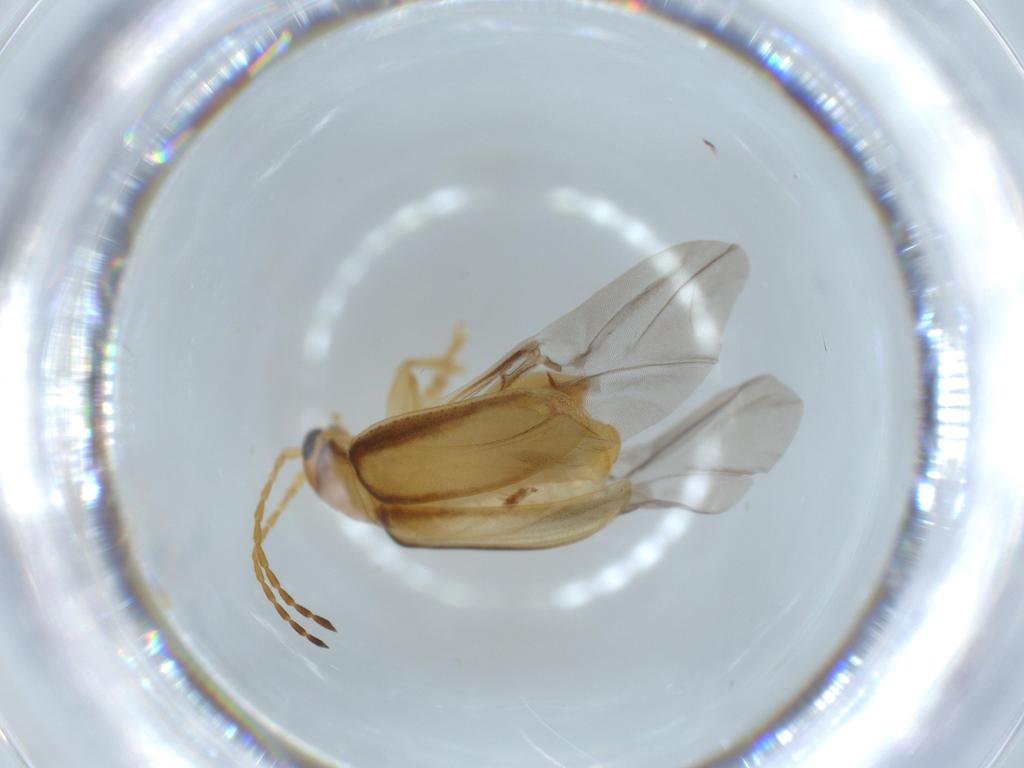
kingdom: Animalia
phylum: Arthropoda
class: Insecta
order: Coleoptera
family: Chrysomelidae
